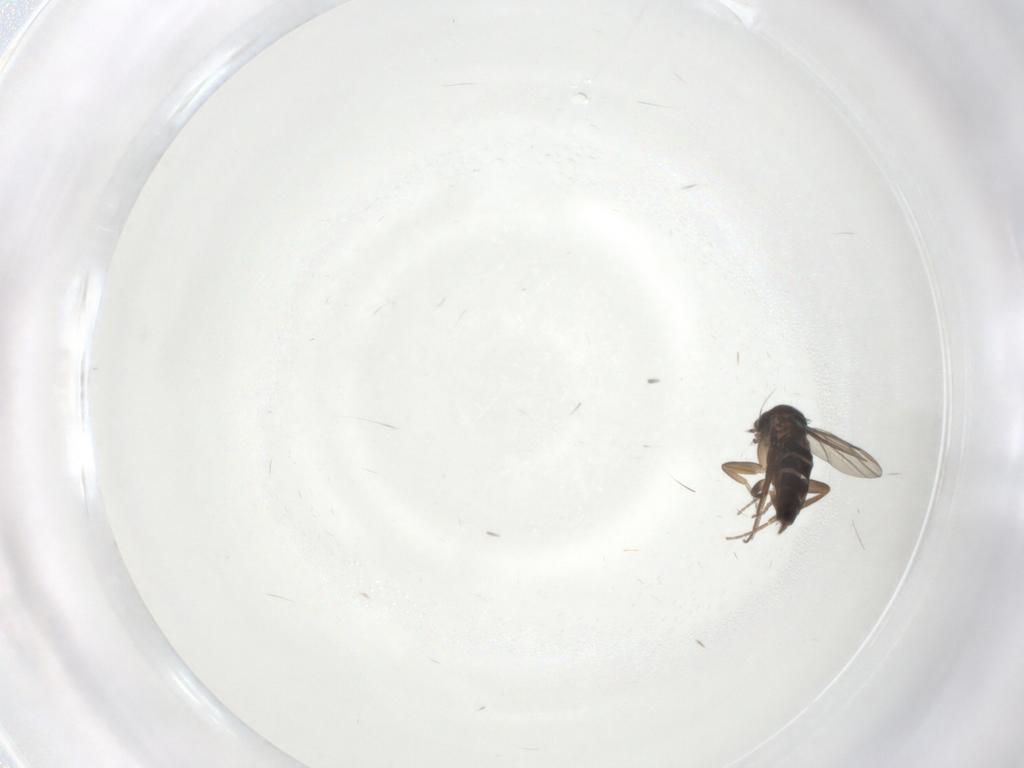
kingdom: Animalia
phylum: Arthropoda
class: Insecta
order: Diptera
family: Cecidomyiidae
